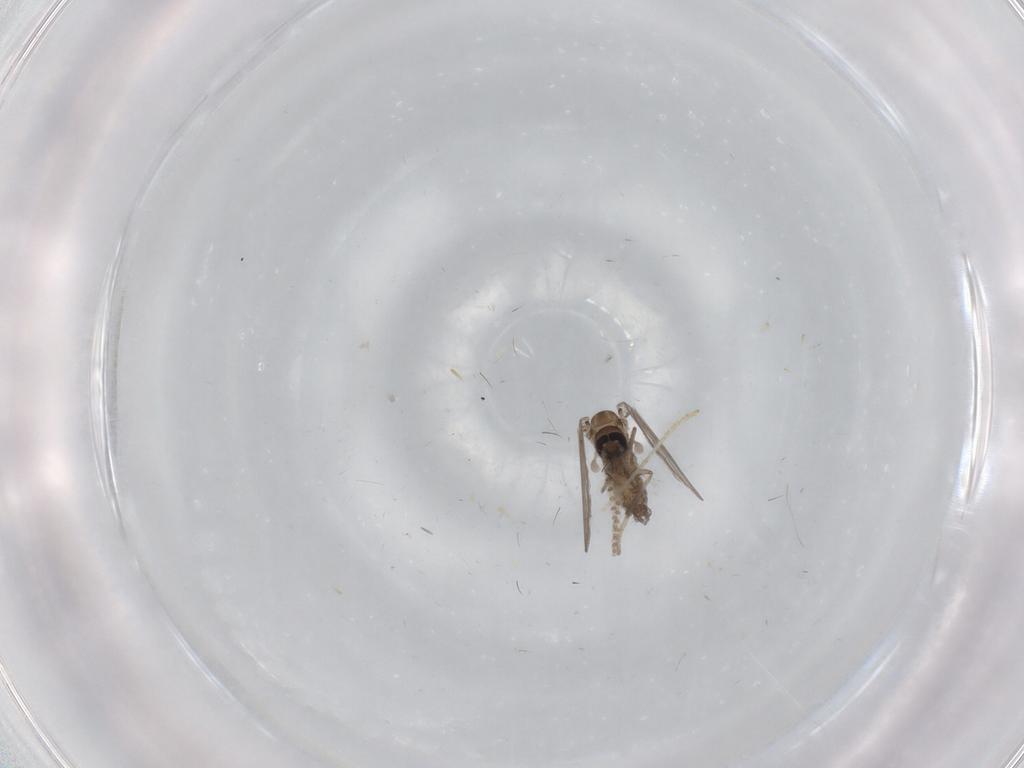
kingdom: Animalia
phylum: Arthropoda
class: Insecta
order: Diptera
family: Psychodidae
